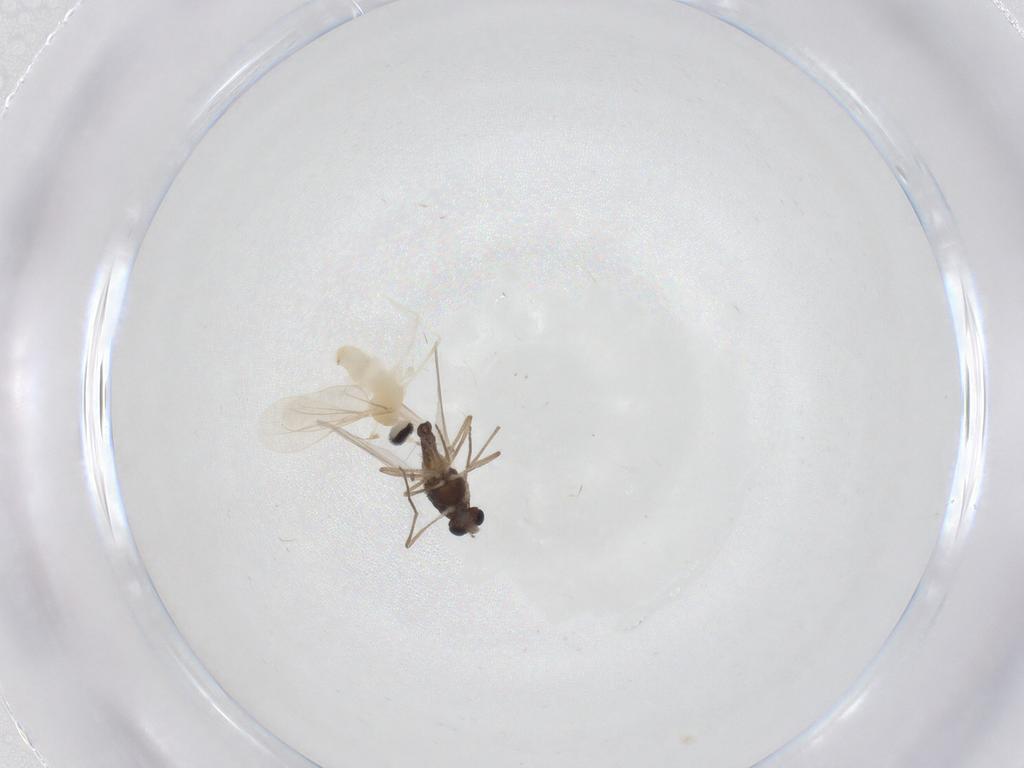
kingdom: Animalia
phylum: Arthropoda
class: Insecta
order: Diptera
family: Chironomidae
